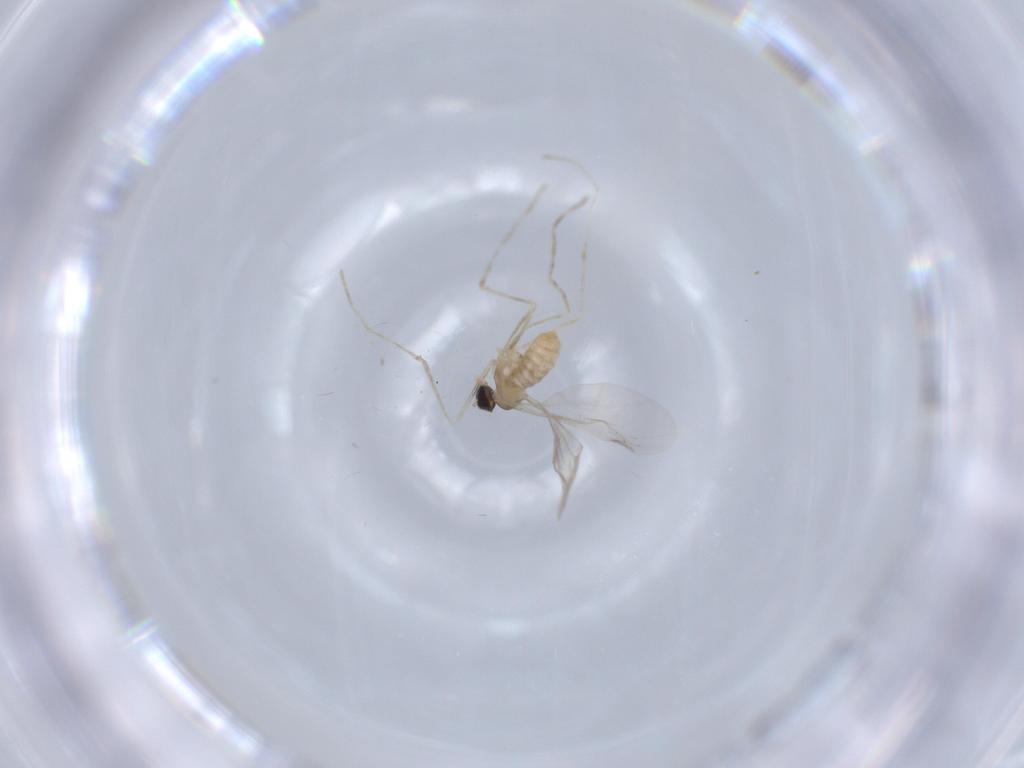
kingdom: Animalia
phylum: Arthropoda
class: Insecta
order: Diptera
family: Cecidomyiidae
